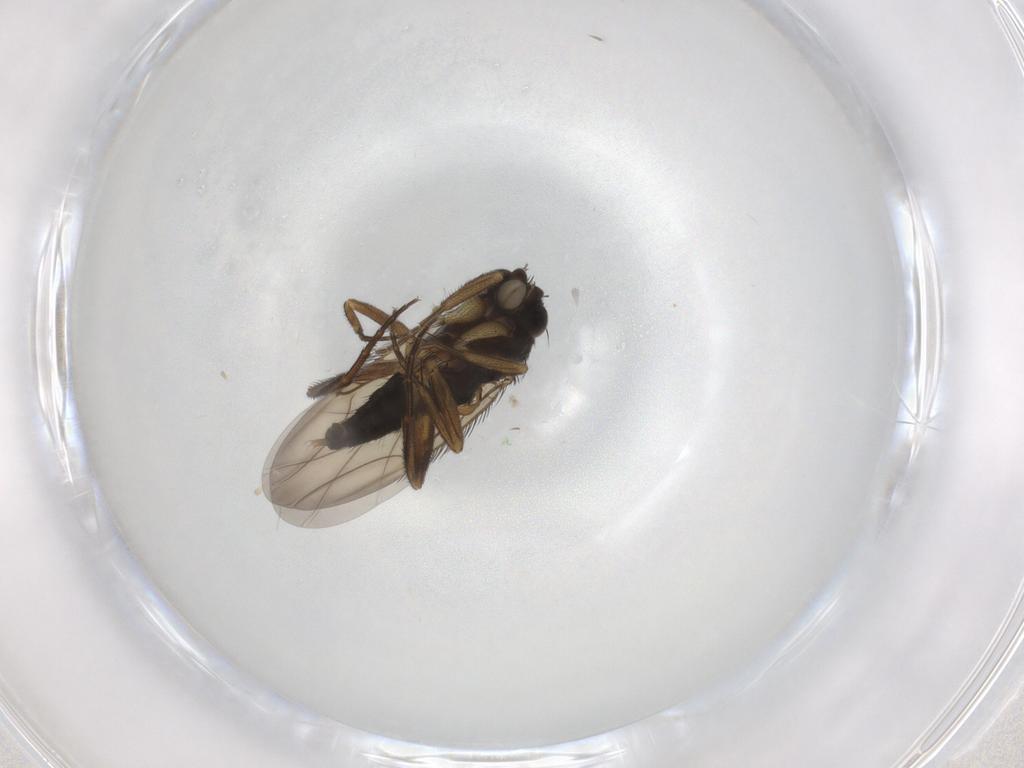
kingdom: Animalia
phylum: Arthropoda
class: Insecta
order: Diptera
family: Phoridae
